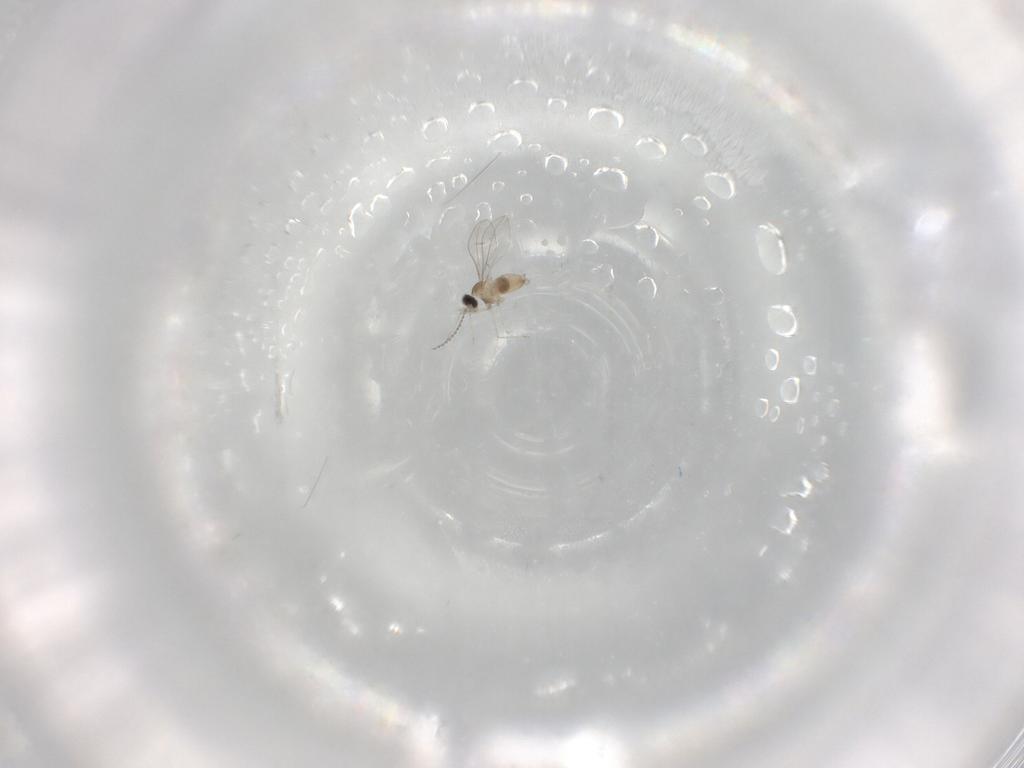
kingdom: Animalia
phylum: Arthropoda
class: Insecta
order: Diptera
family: Cecidomyiidae
